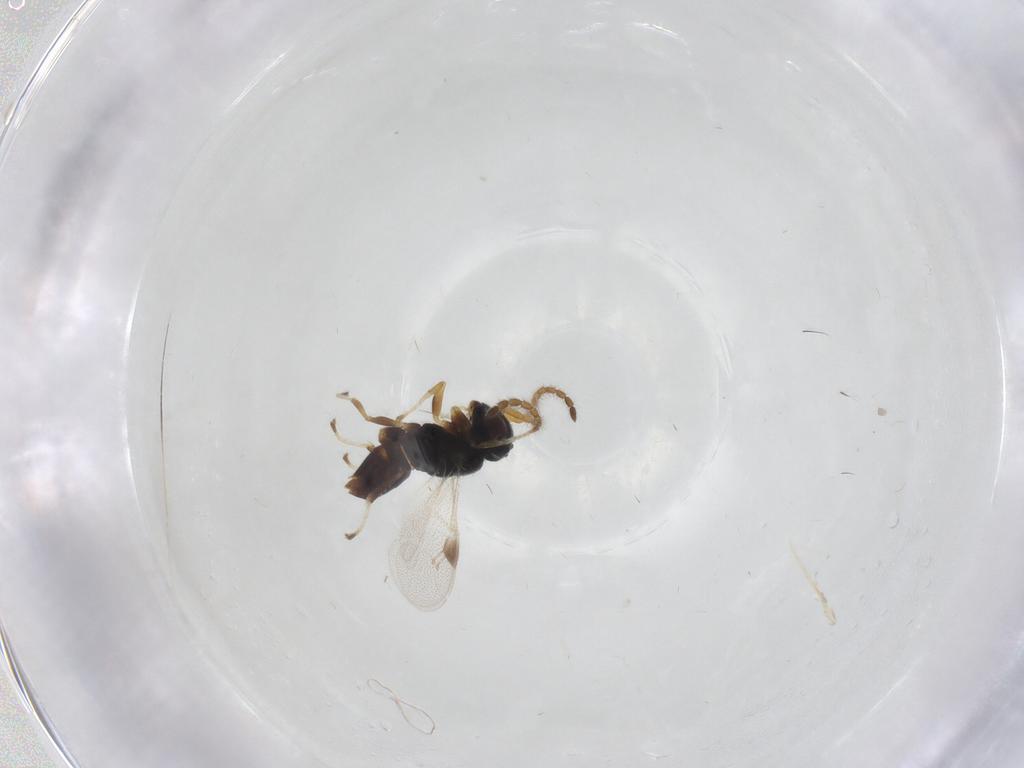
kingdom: Animalia
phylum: Arthropoda
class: Insecta
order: Hymenoptera
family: Dryinidae
